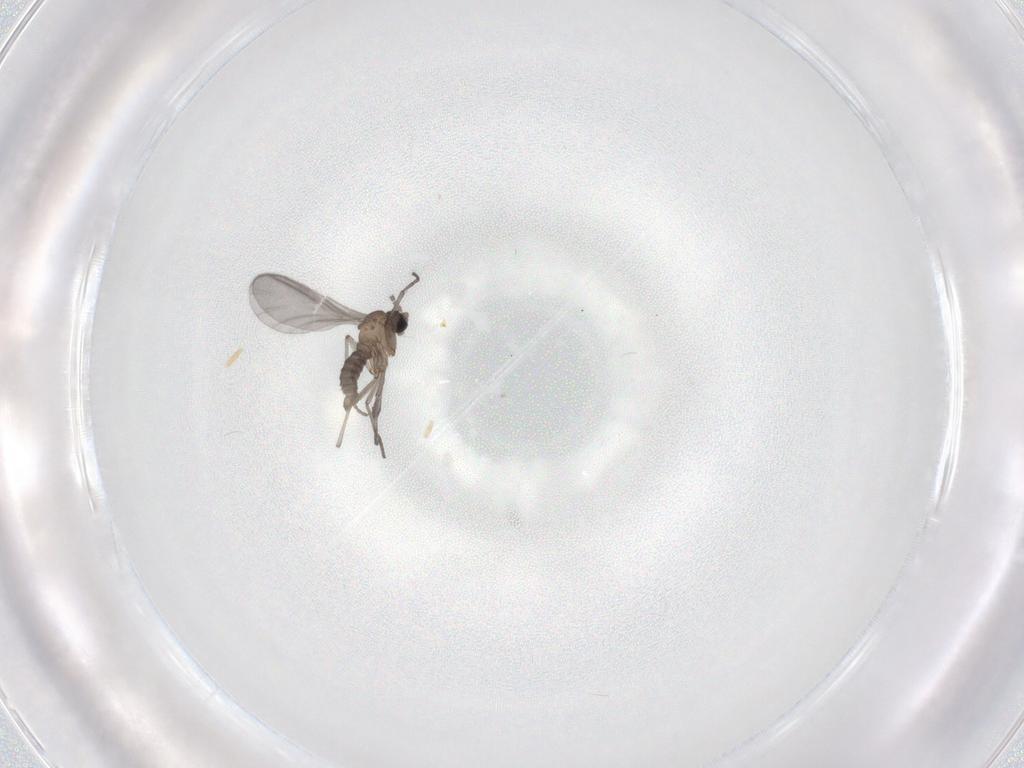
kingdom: Animalia
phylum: Arthropoda
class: Insecta
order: Diptera
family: Sciaridae
